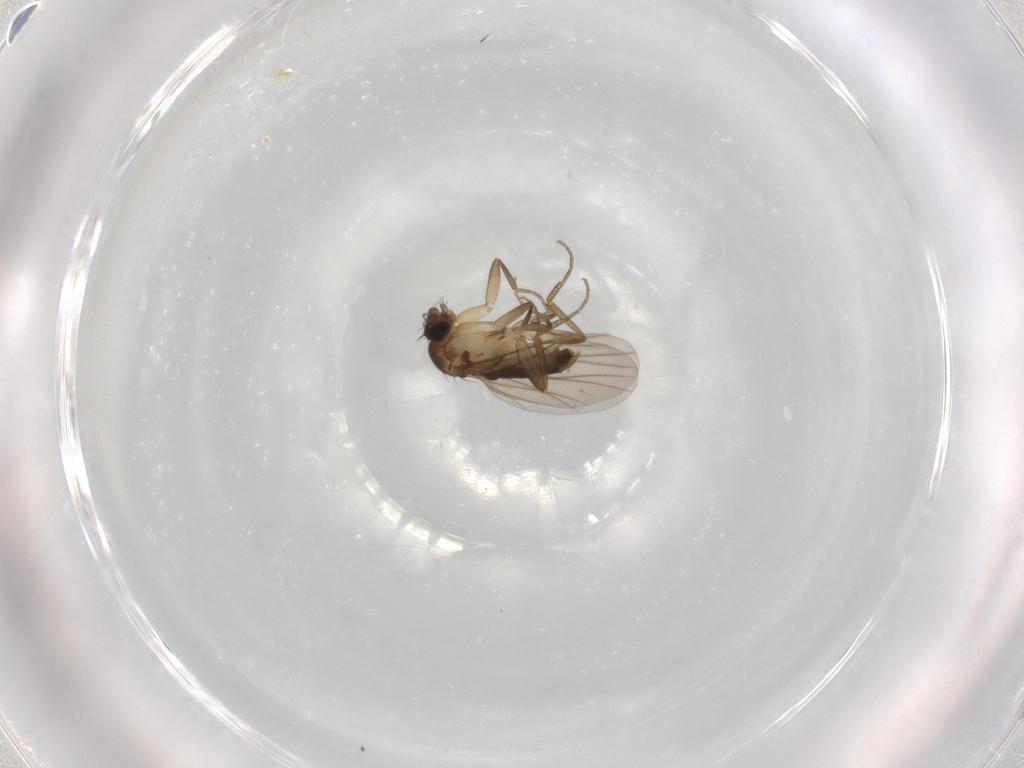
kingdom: Animalia
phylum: Arthropoda
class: Insecta
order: Diptera
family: Phoridae
